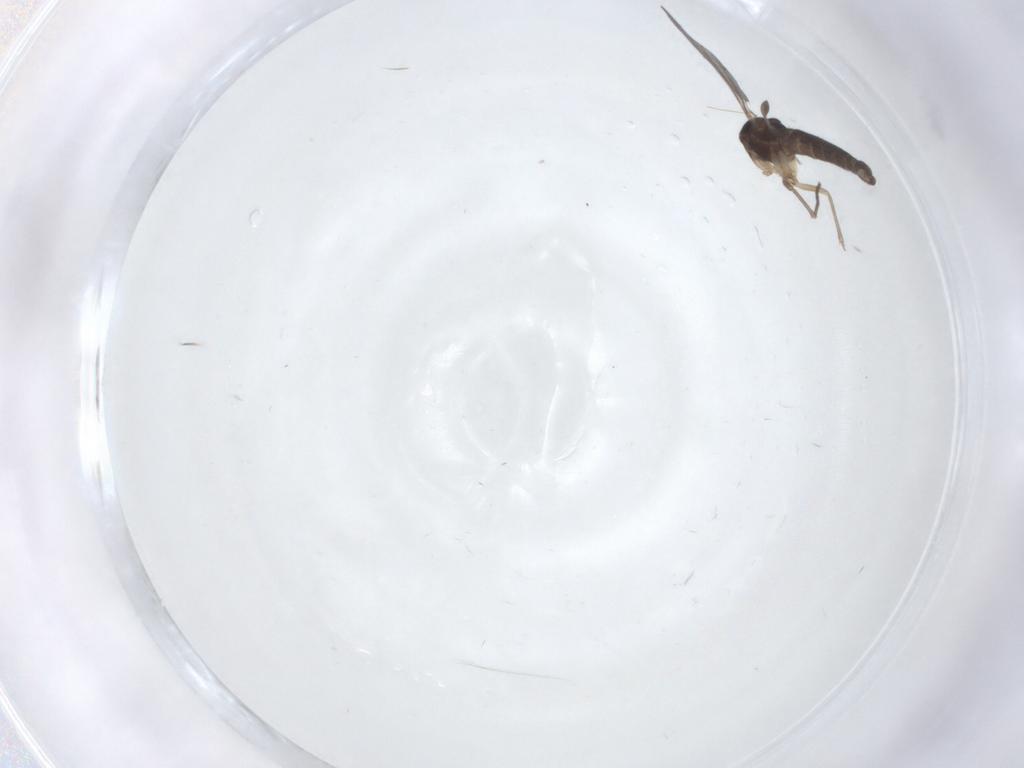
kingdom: Animalia
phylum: Arthropoda
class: Insecta
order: Diptera
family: Sciaridae
